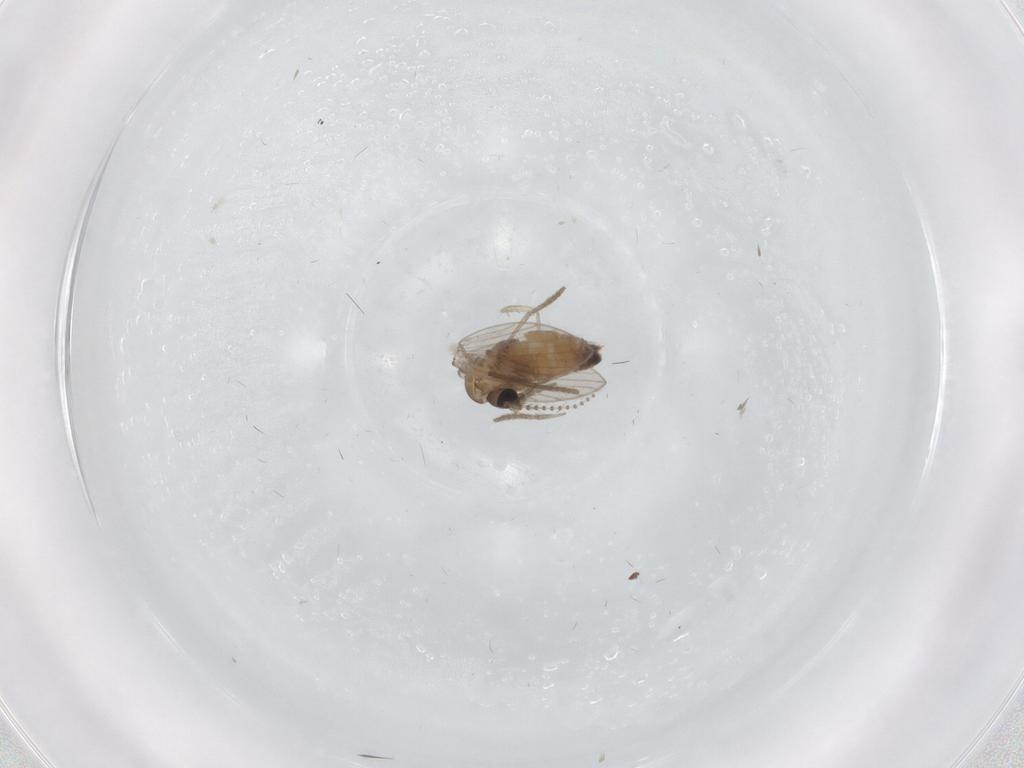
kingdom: Animalia
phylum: Arthropoda
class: Insecta
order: Diptera
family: Psychodidae
